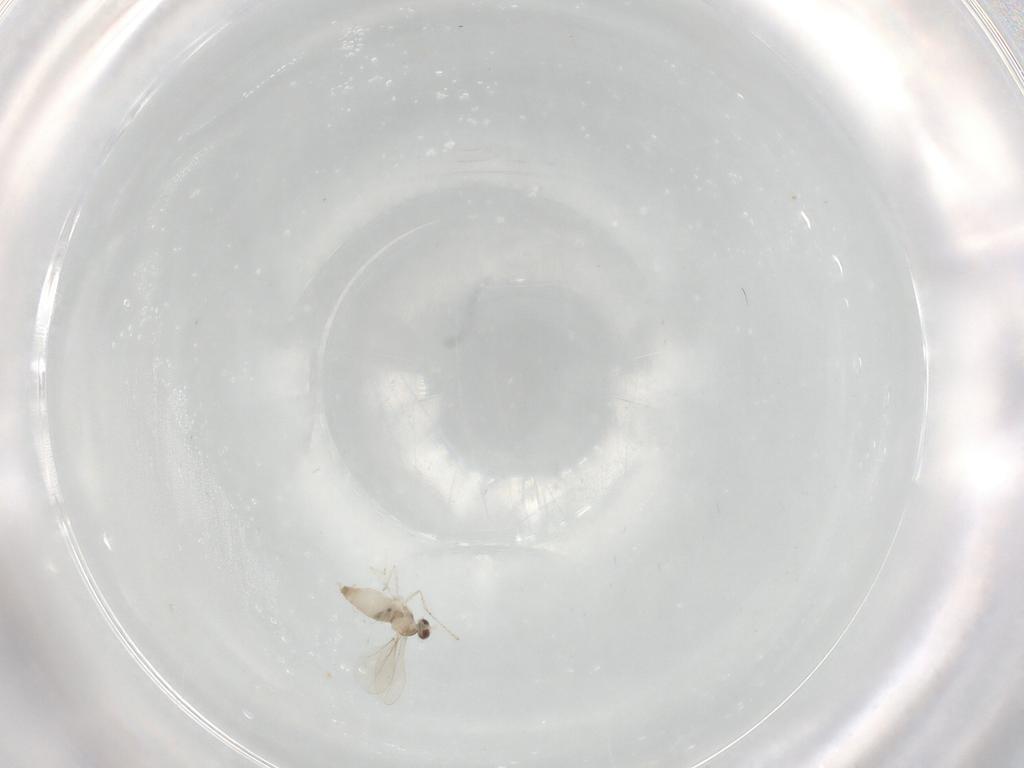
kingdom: Animalia
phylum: Arthropoda
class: Insecta
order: Diptera
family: Cecidomyiidae
